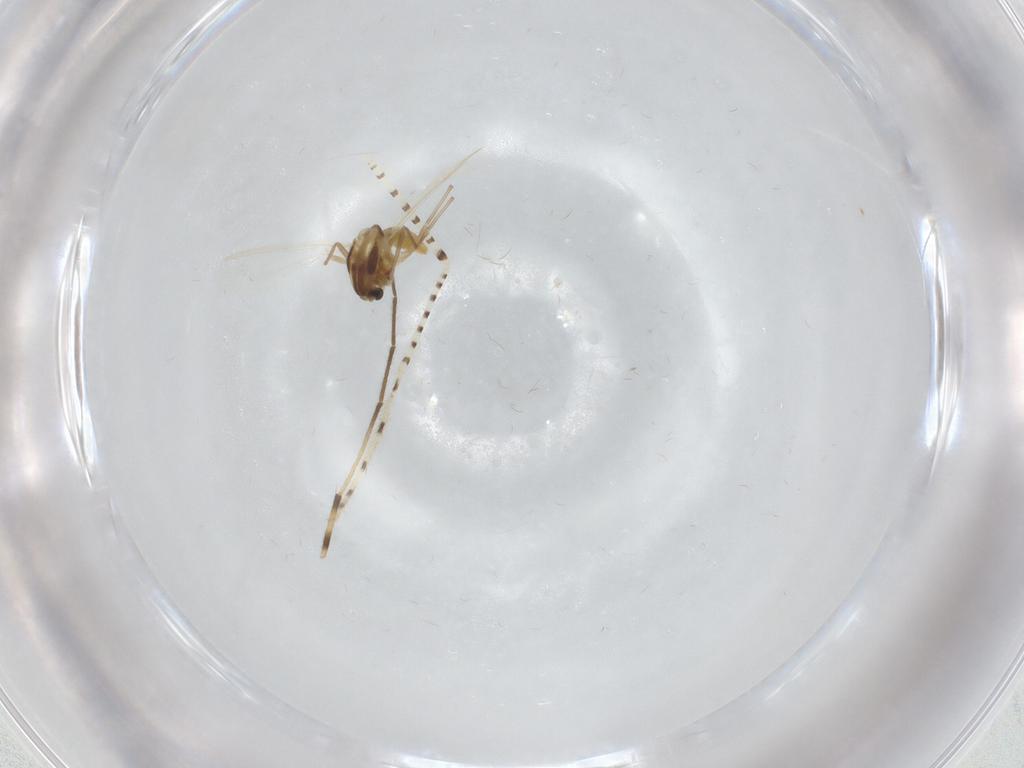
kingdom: Animalia
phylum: Arthropoda
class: Insecta
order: Diptera
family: Chironomidae
